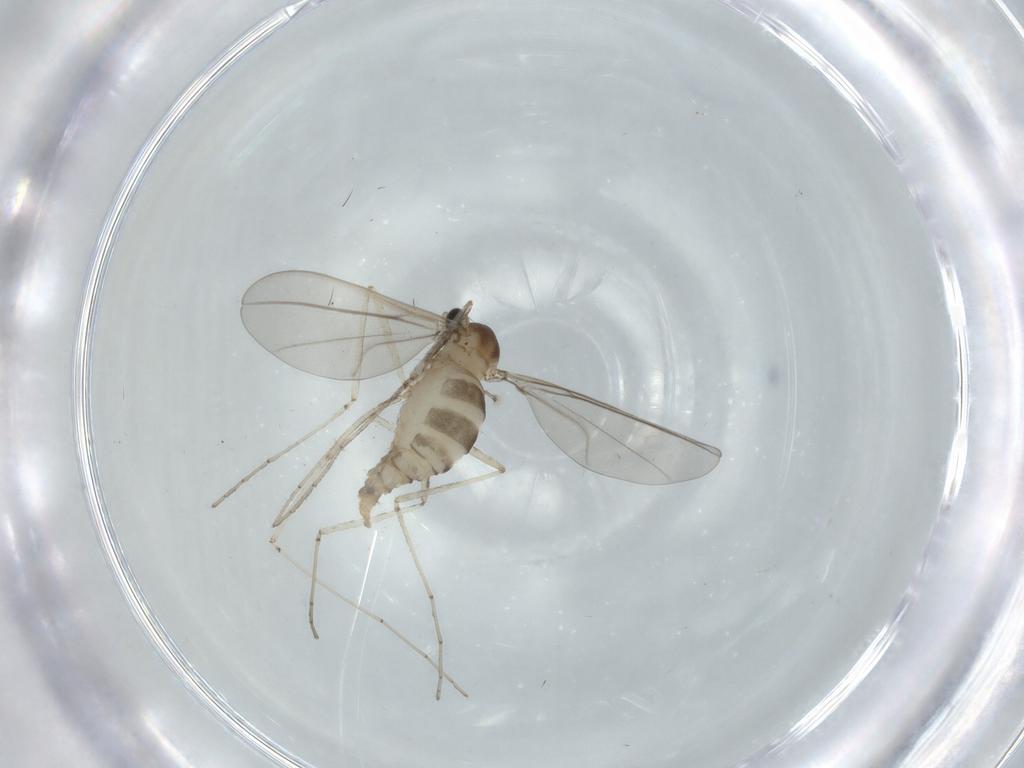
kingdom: Animalia
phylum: Arthropoda
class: Insecta
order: Diptera
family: Cecidomyiidae
